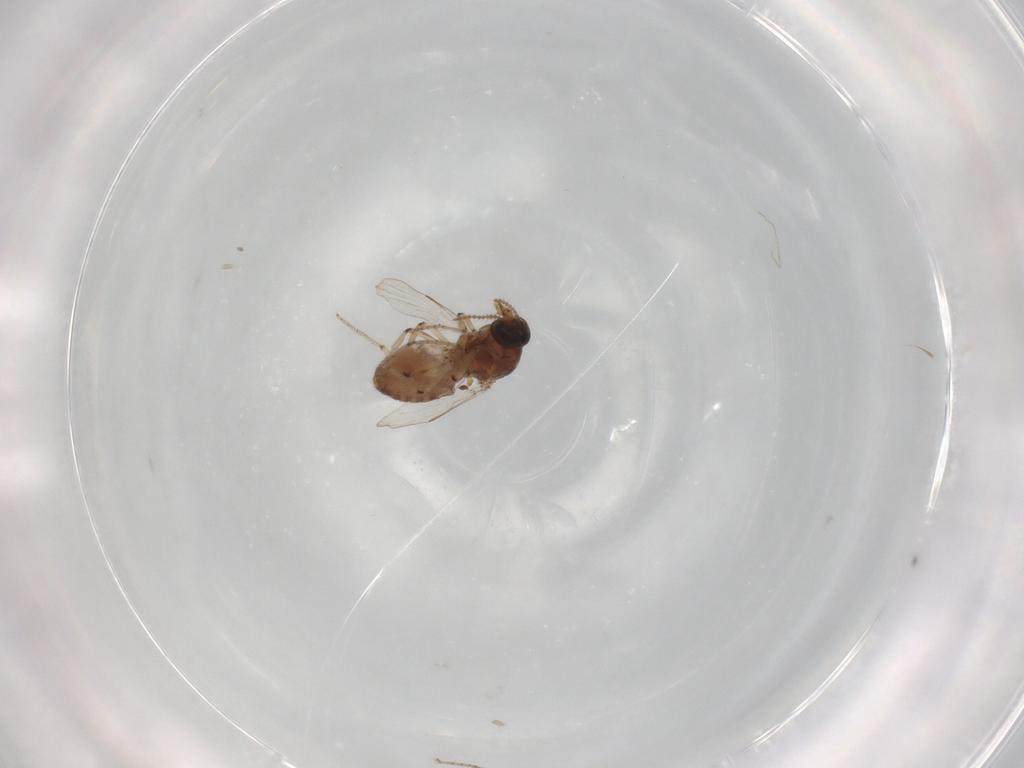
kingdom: Animalia
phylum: Arthropoda
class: Insecta
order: Diptera
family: Ceratopogonidae
